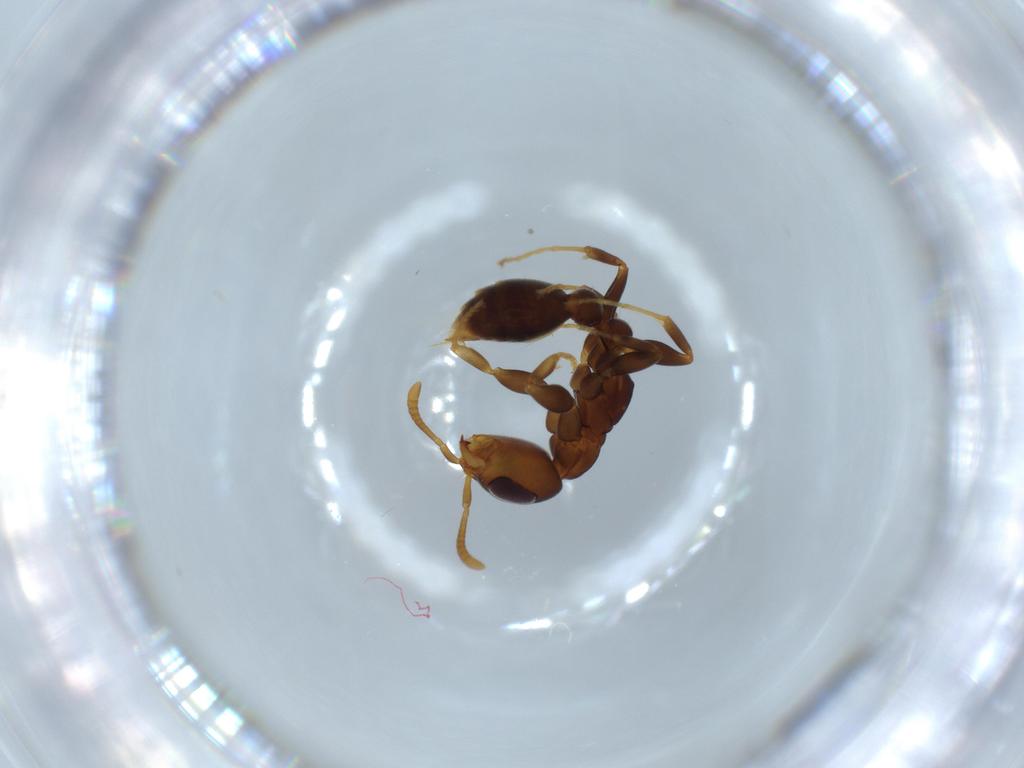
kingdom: Animalia
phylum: Arthropoda
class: Insecta
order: Hymenoptera
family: Formicidae
